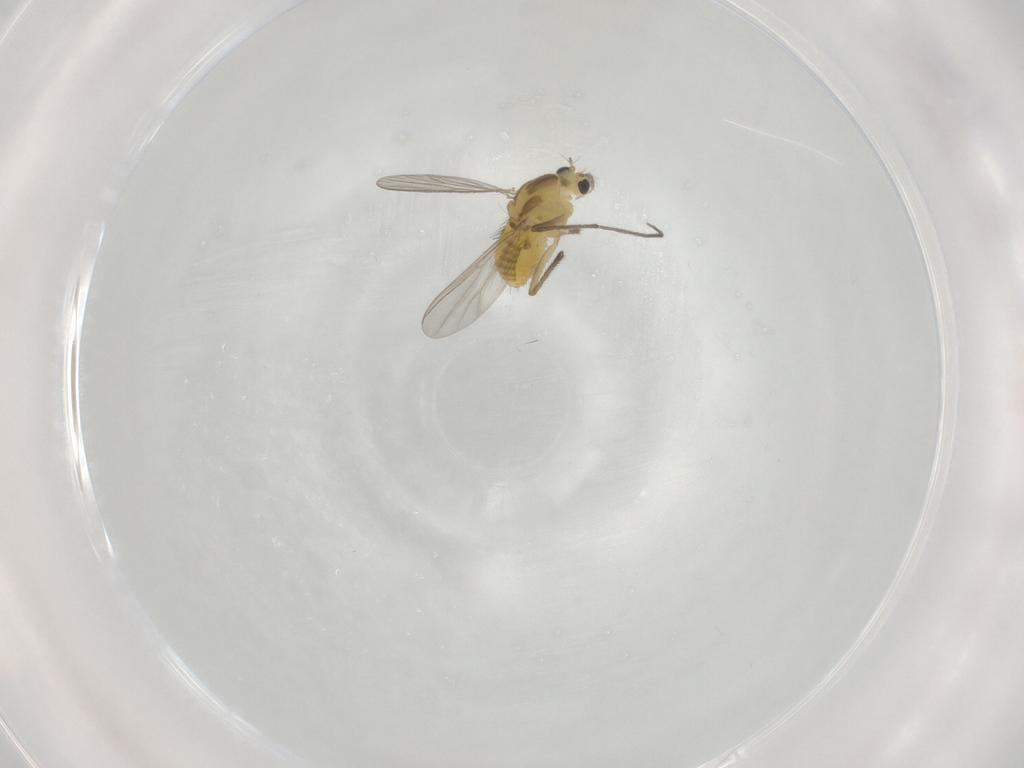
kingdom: Animalia
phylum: Arthropoda
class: Insecta
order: Diptera
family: Chironomidae
